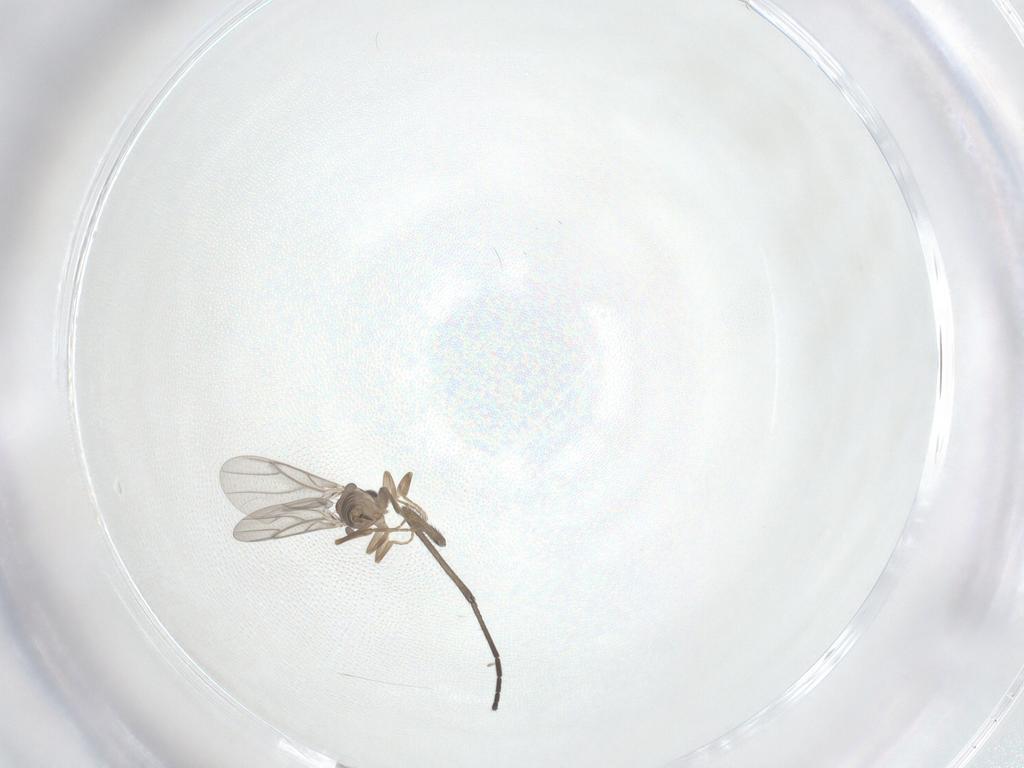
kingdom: Animalia
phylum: Arthropoda
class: Insecta
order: Diptera
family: Sciaridae
